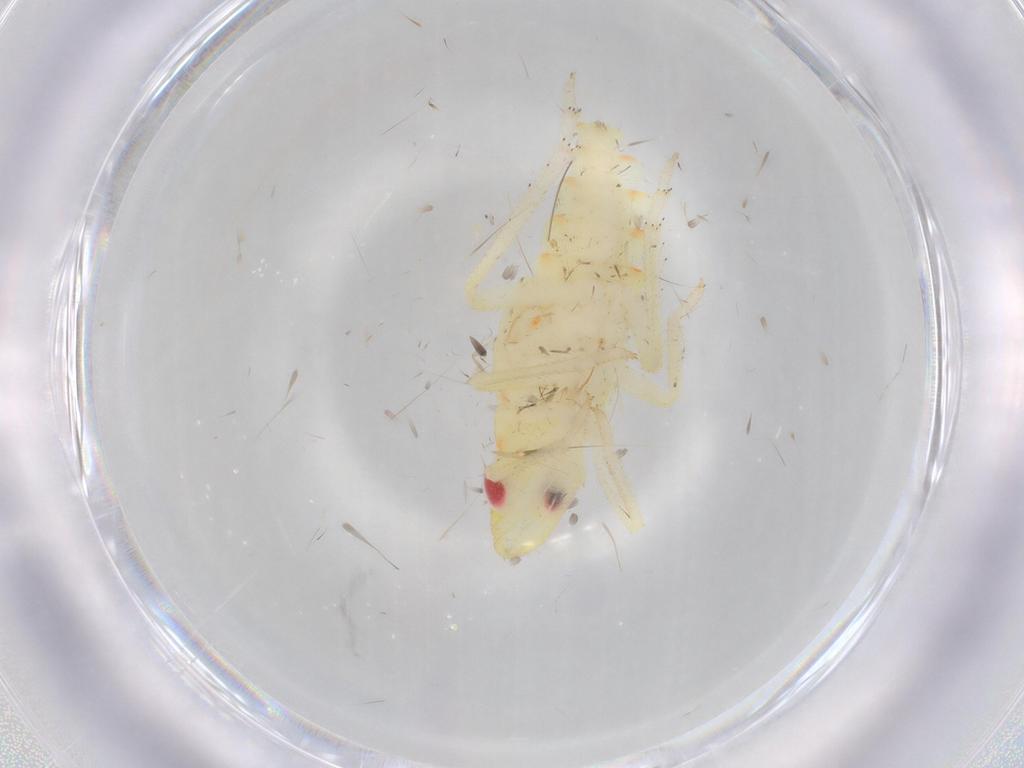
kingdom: Animalia
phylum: Arthropoda
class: Insecta
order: Hemiptera
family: Tropiduchidae
